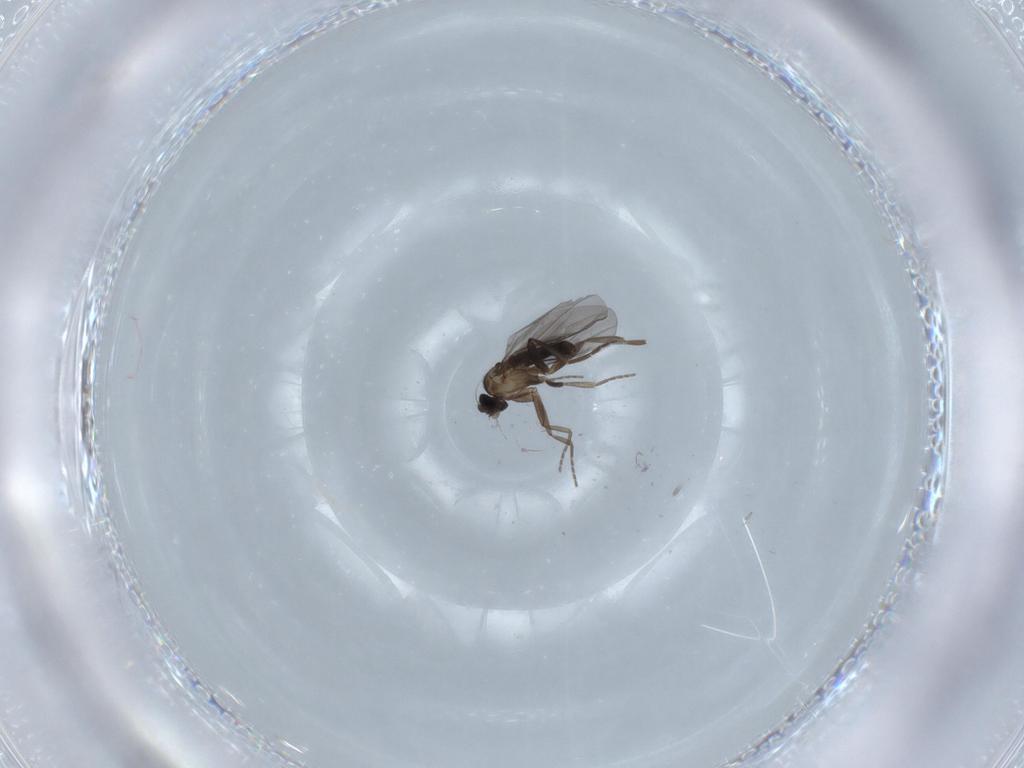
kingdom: Animalia
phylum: Arthropoda
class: Insecta
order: Diptera
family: Phoridae
